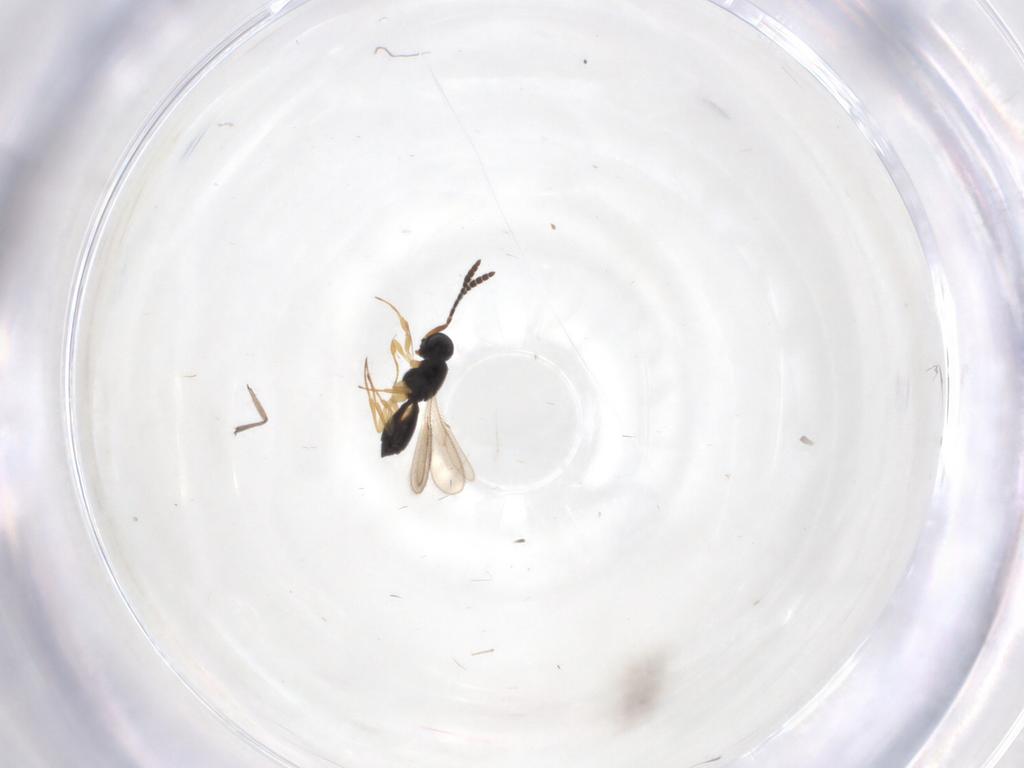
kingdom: Animalia
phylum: Arthropoda
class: Insecta
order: Hymenoptera
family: Scelionidae
